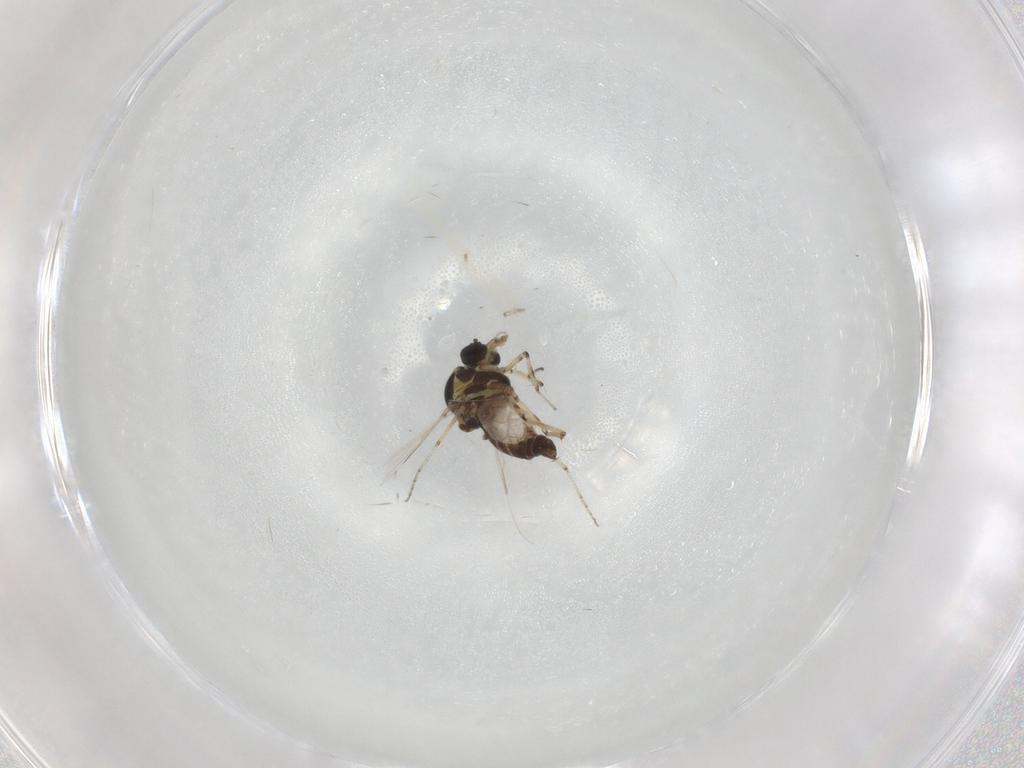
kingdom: Animalia
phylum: Arthropoda
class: Insecta
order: Diptera
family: Ceratopogonidae
